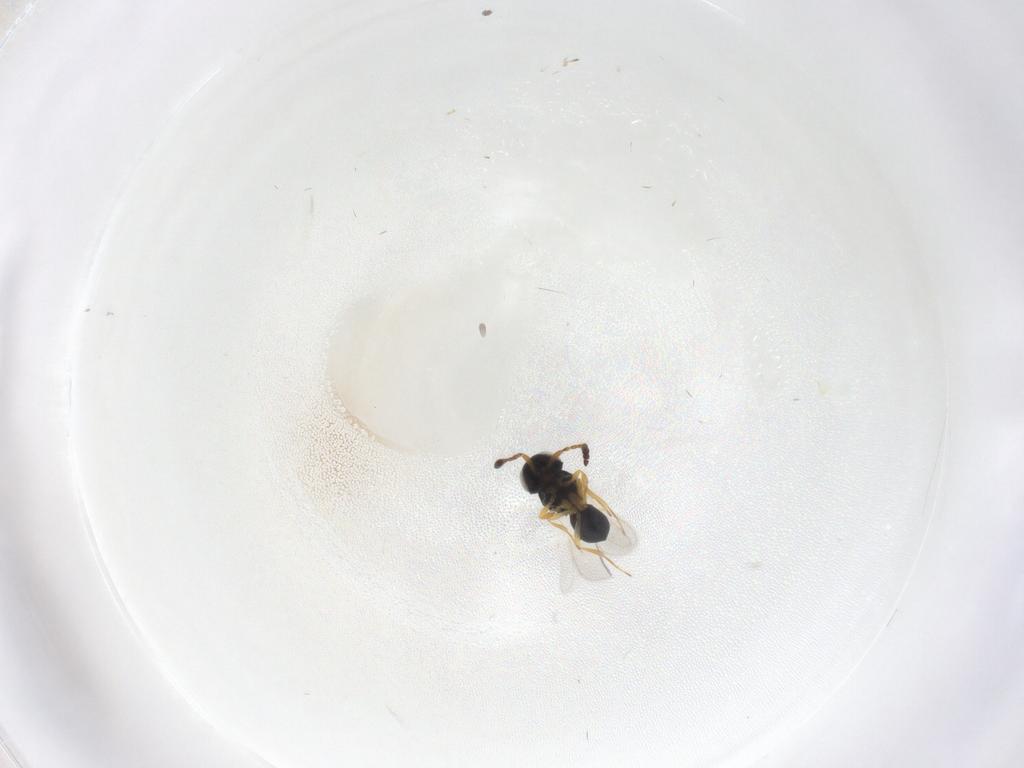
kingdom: Animalia
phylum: Arthropoda
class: Insecta
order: Hymenoptera
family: Scelionidae
